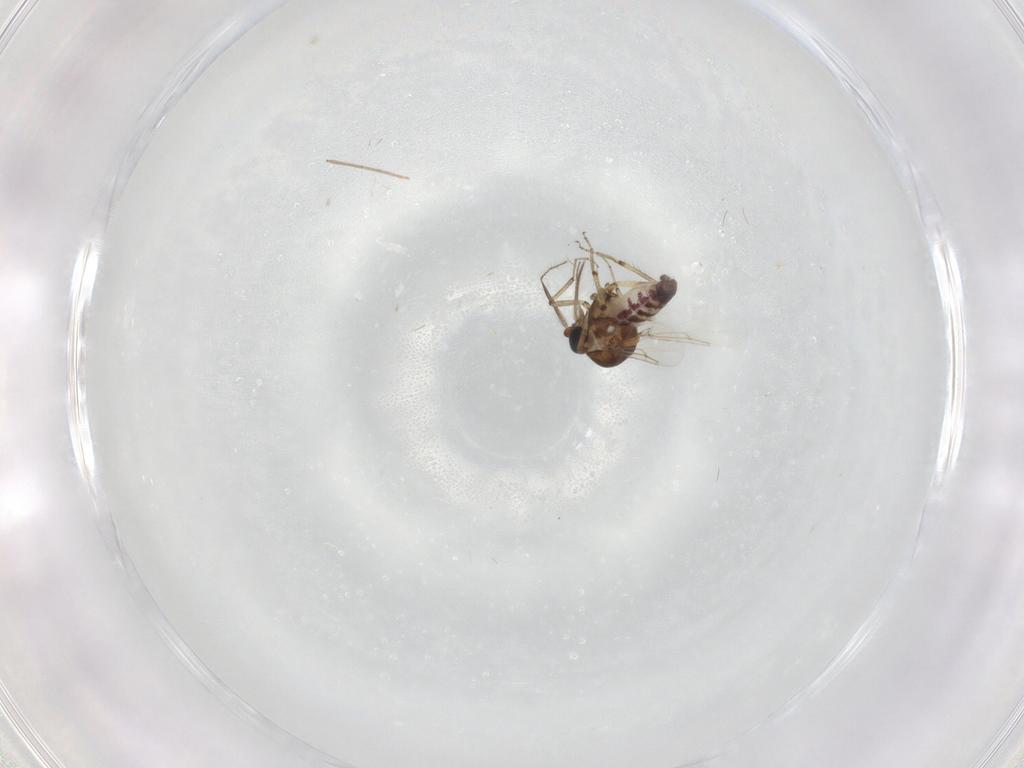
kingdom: Animalia
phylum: Arthropoda
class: Insecta
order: Diptera
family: Ceratopogonidae
